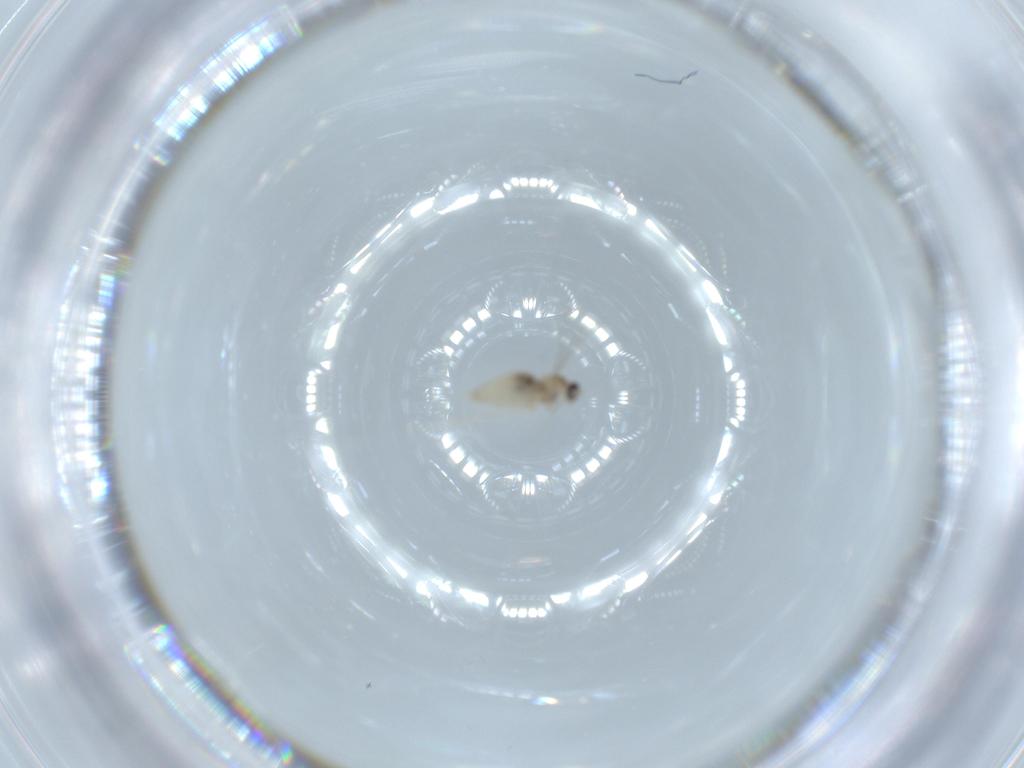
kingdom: Animalia
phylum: Arthropoda
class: Insecta
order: Diptera
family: Cecidomyiidae
